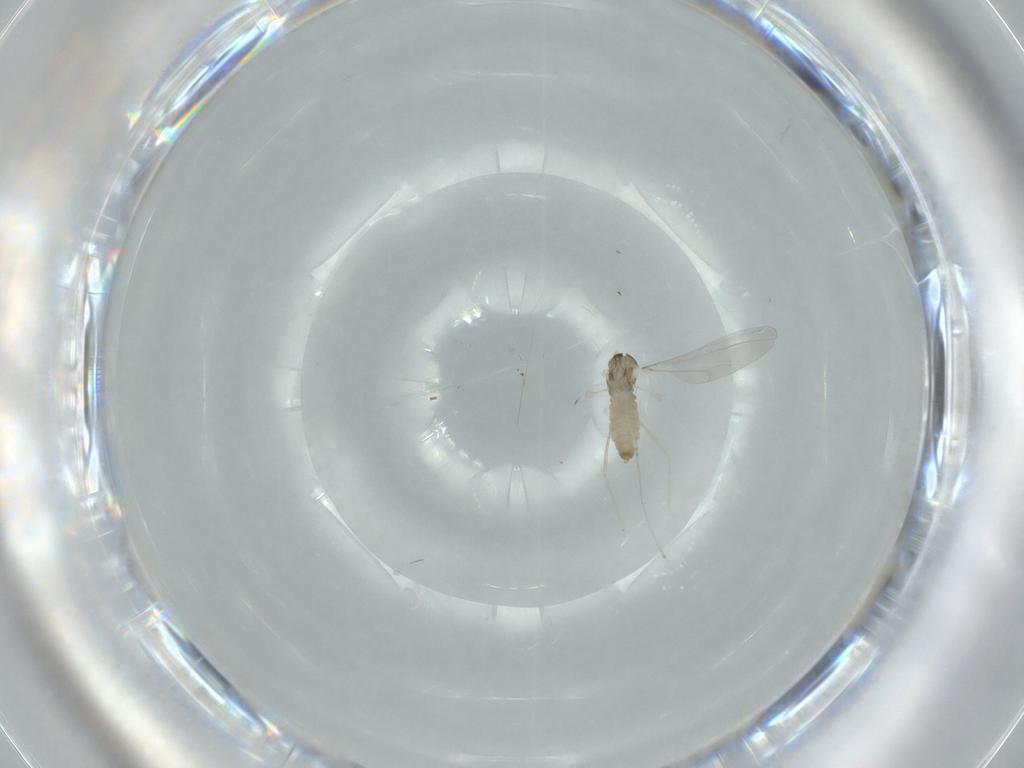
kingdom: Animalia
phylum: Arthropoda
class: Insecta
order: Diptera
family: Cecidomyiidae
